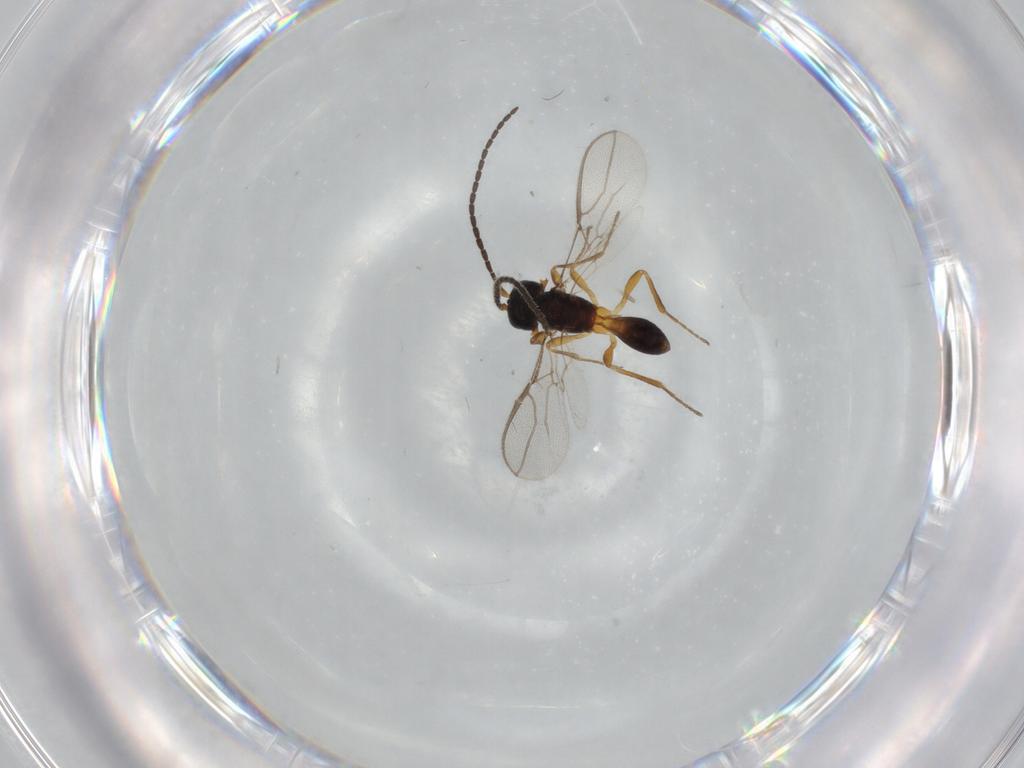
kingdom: Animalia
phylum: Arthropoda
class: Insecta
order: Hymenoptera
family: Braconidae
